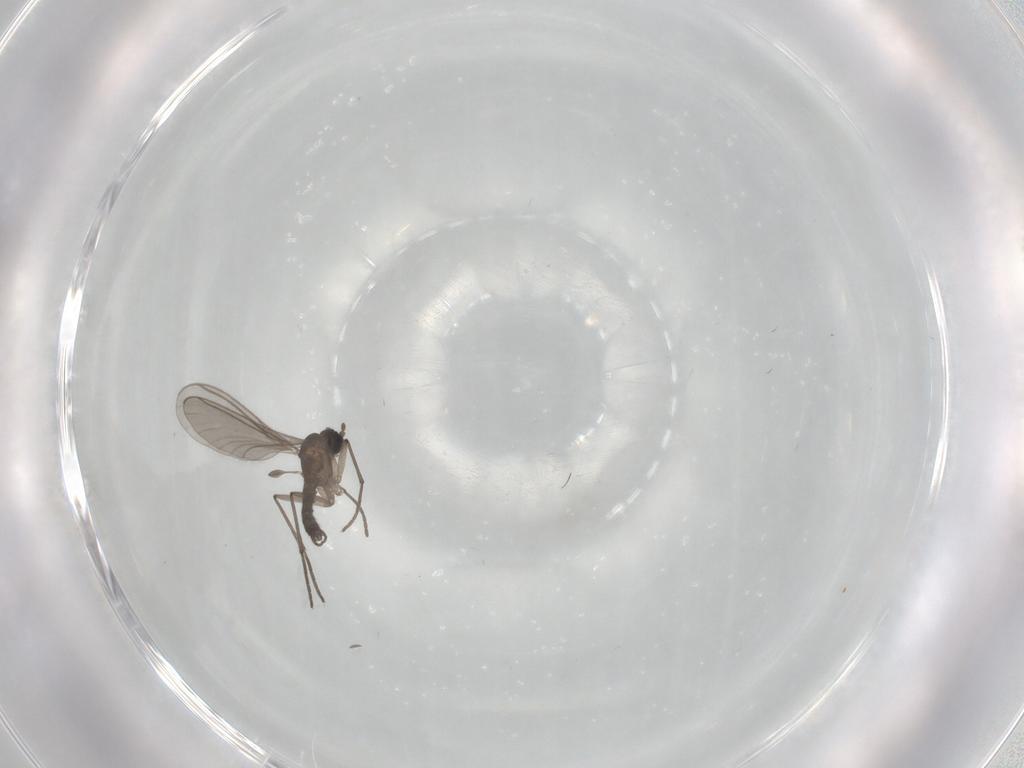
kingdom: Animalia
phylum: Arthropoda
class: Insecta
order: Diptera
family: Sciaridae
